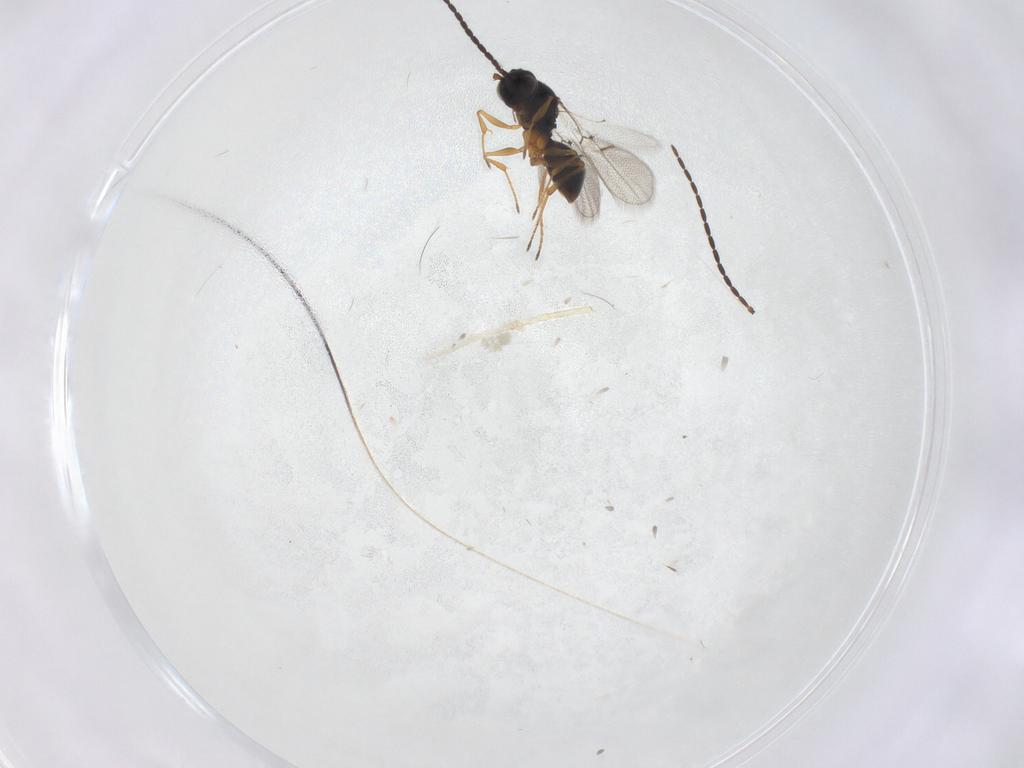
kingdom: Animalia
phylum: Arthropoda
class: Insecta
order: Hymenoptera
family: Figitidae
